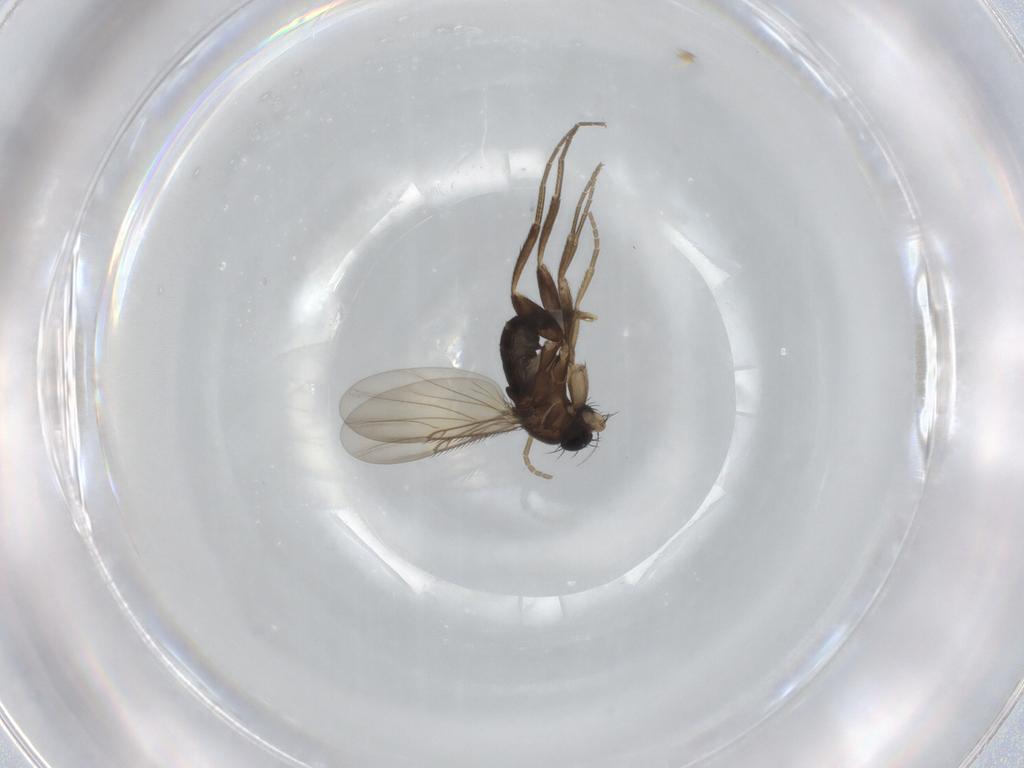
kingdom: Animalia
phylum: Arthropoda
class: Insecta
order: Diptera
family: Phoridae
